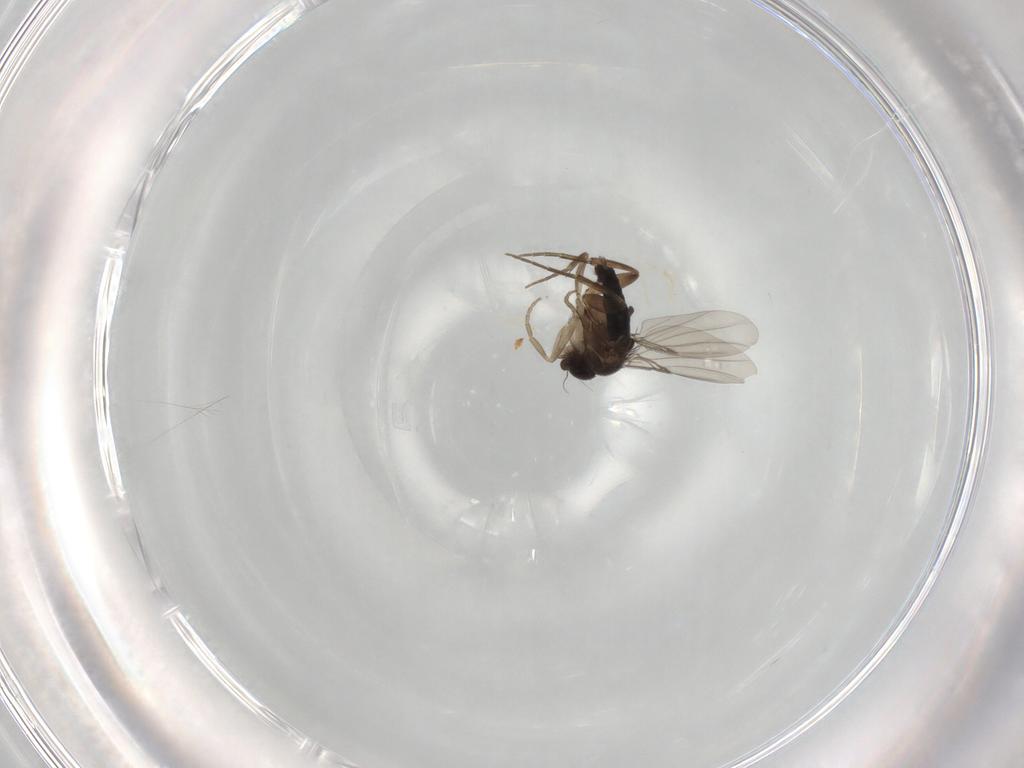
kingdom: Animalia
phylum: Arthropoda
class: Insecta
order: Diptera
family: Phoridae
